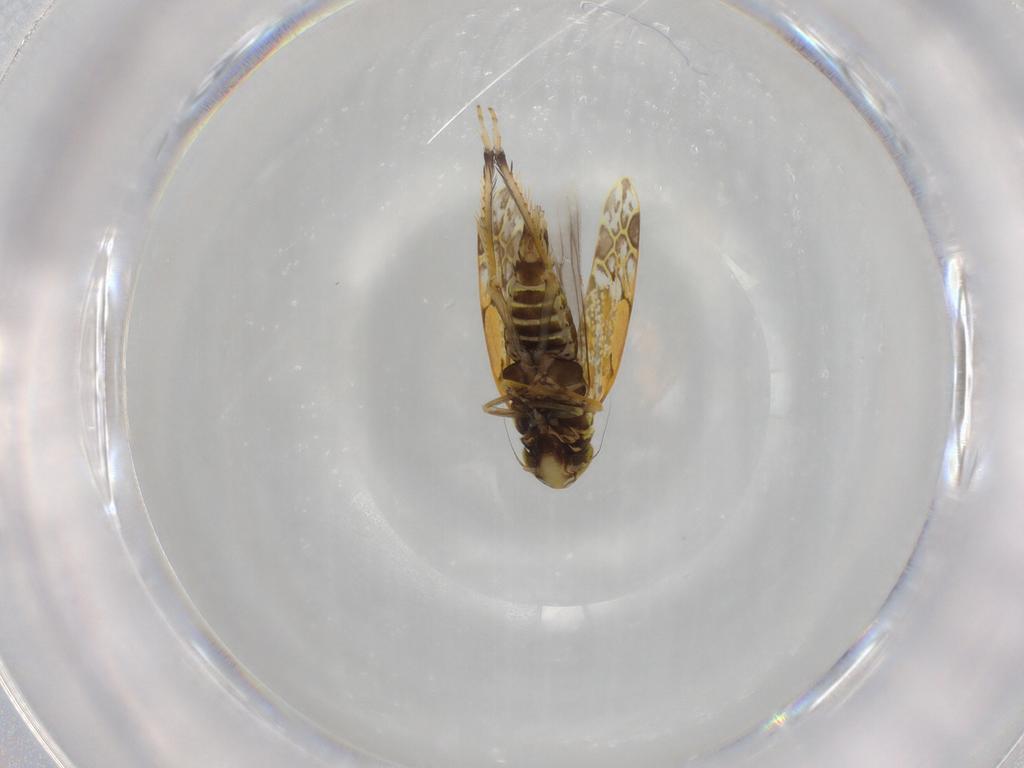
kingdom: Animalia
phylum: Arthropoda
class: Insecta
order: Hemiptera
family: Cicadellidae
